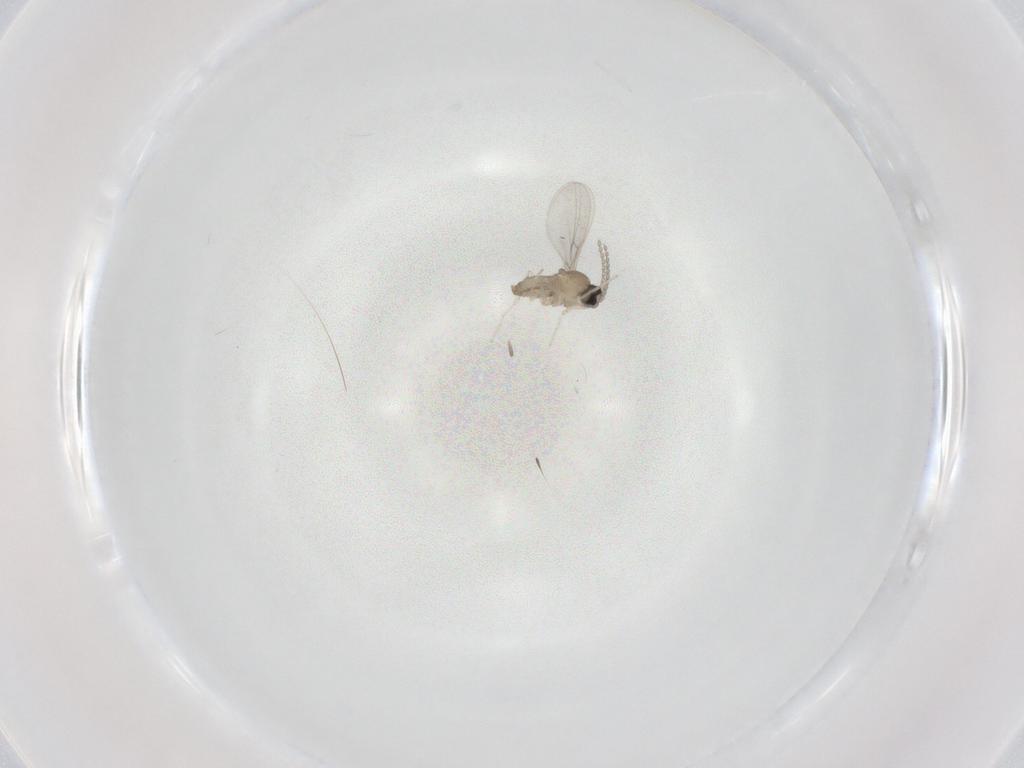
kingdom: Animalia
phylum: Arthropoda
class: Insecta
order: Diptera
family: Cecidomyiidae
